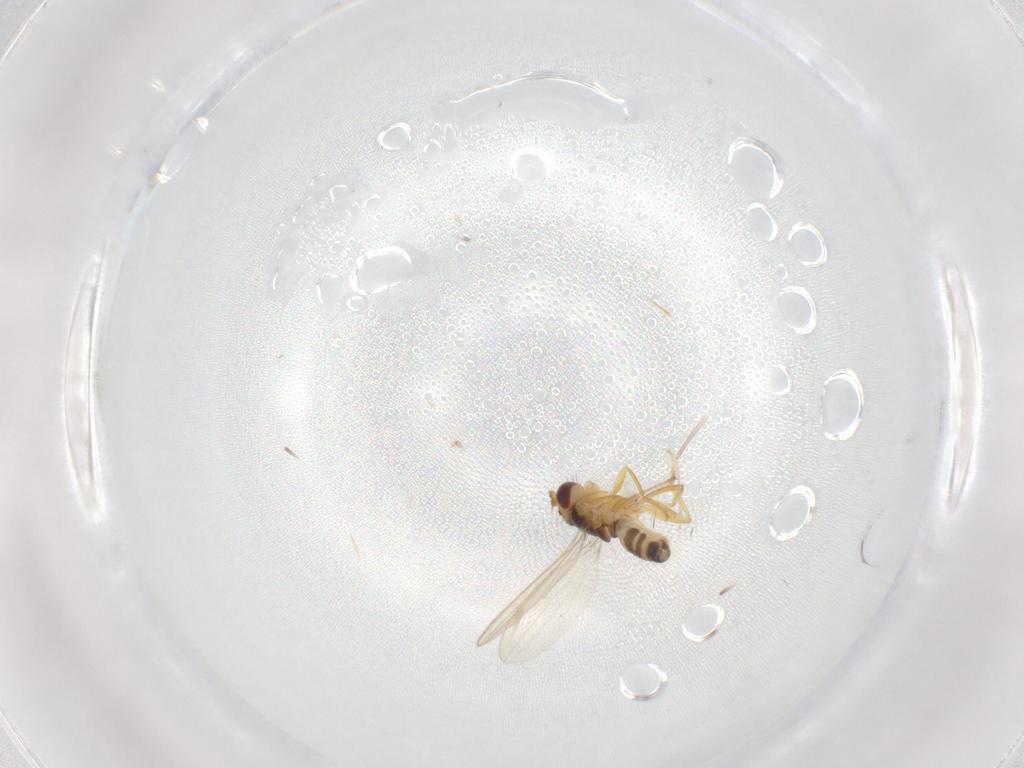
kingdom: Animalia
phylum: Arthropoda
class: Insecta
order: Diptera
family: Periscelididae
